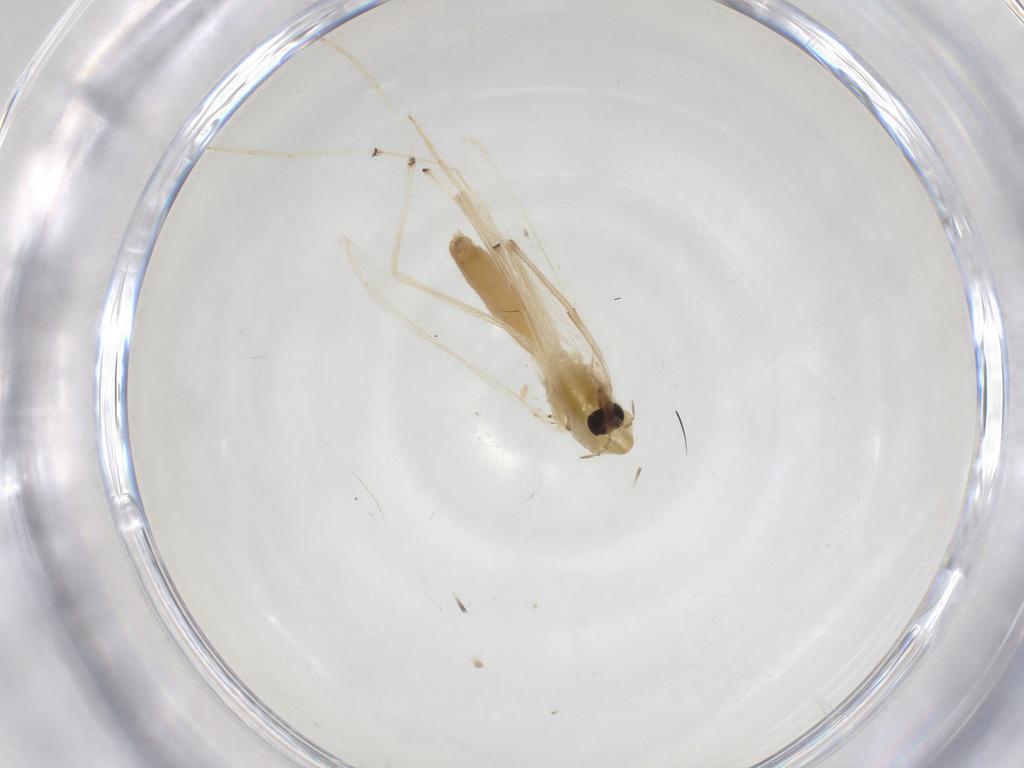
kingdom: Animalia
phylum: Arthropoda
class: Insecta
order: Diptera
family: Chironomidae
